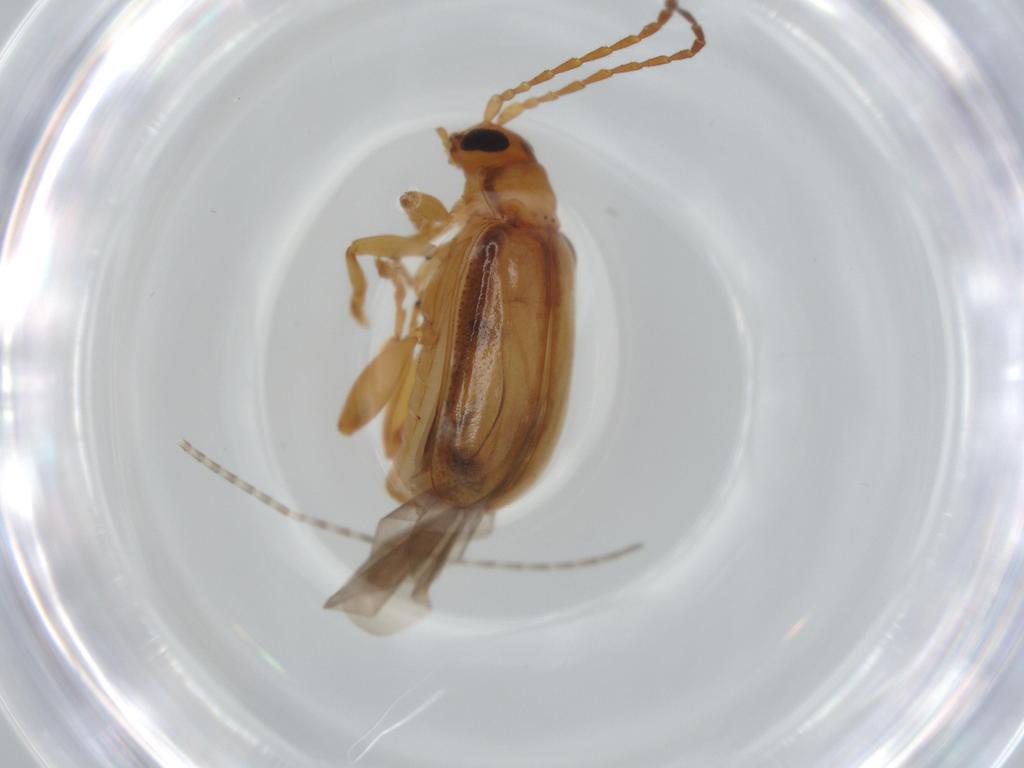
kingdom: Animalia
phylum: Arthropoda
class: Insecta
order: Coleoptera
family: Chrysomelidae
